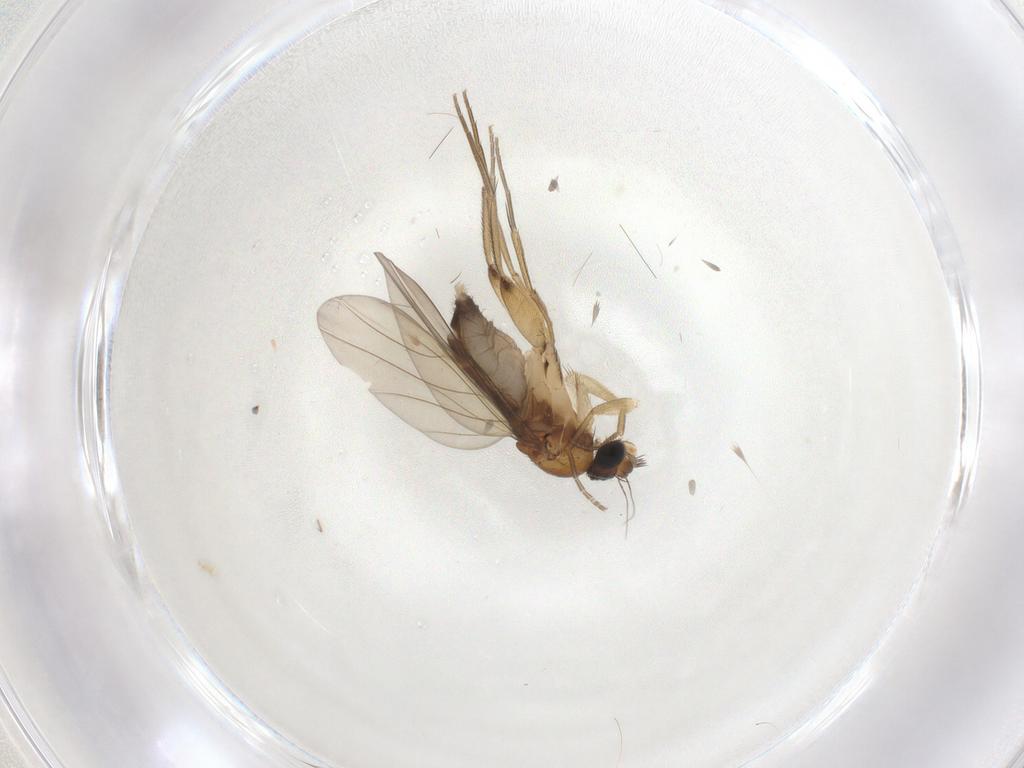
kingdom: Animalia
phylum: Arthropoda
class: Insecta
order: Diptera
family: Phoridae
